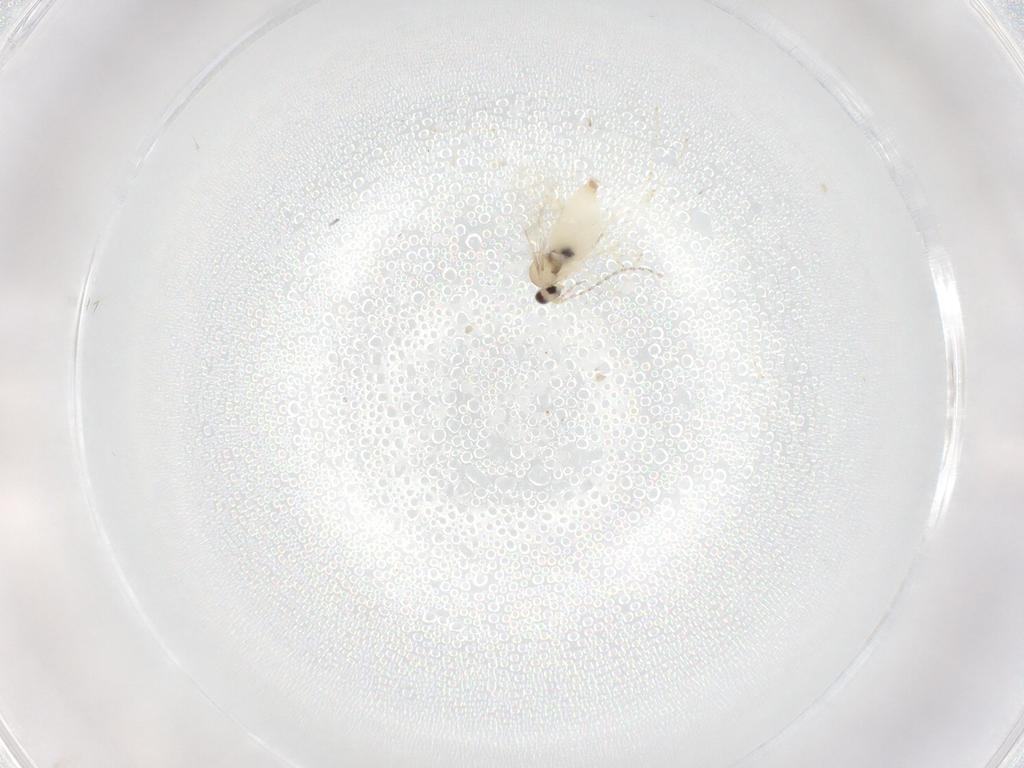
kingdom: Animalia
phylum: Arthropoda
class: Insecta
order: Diptera
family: Cecidomyiidae
